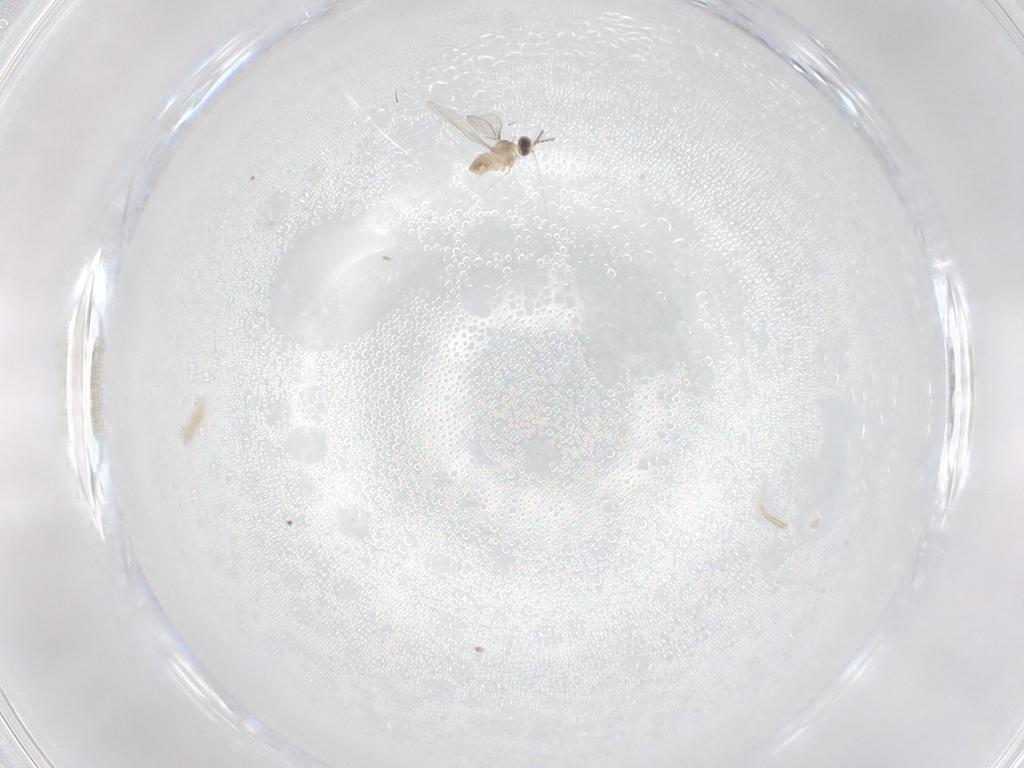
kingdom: Animalia
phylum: Arthropoda
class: Insecta
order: Diptera
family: Cecidomyiidae
